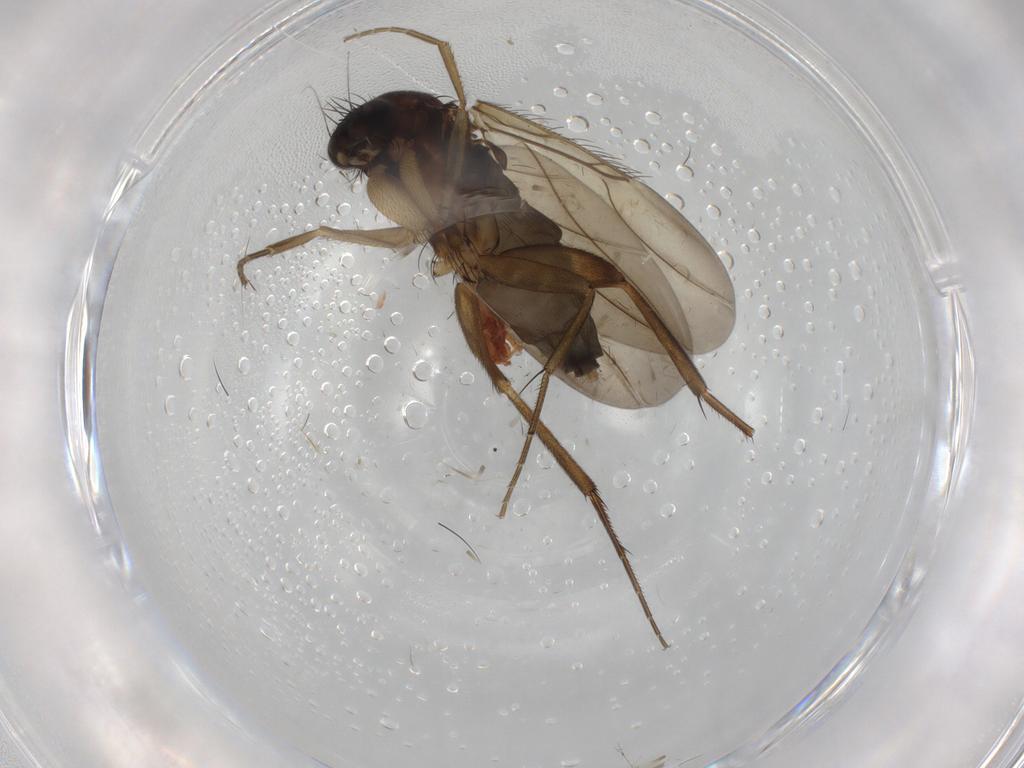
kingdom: Animalia
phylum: Arthropoda
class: Insecta
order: Diptera
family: Phoridae
